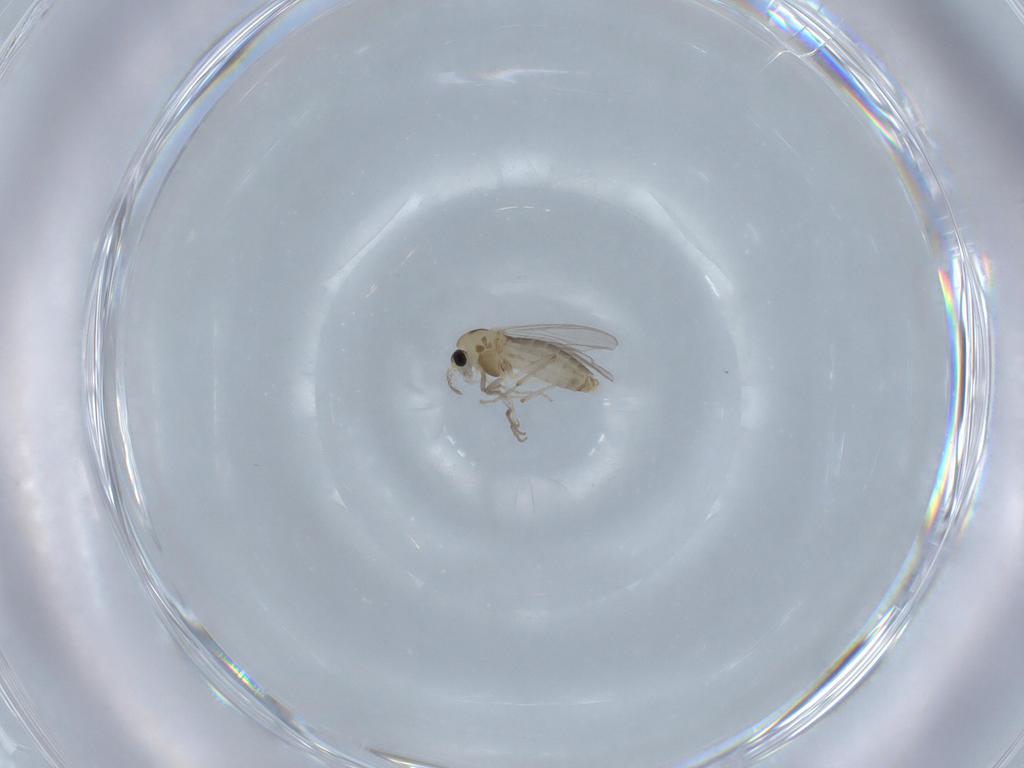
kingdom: Animalia
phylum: Arthropoda
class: Insecta
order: Diptera
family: Chironomidae
